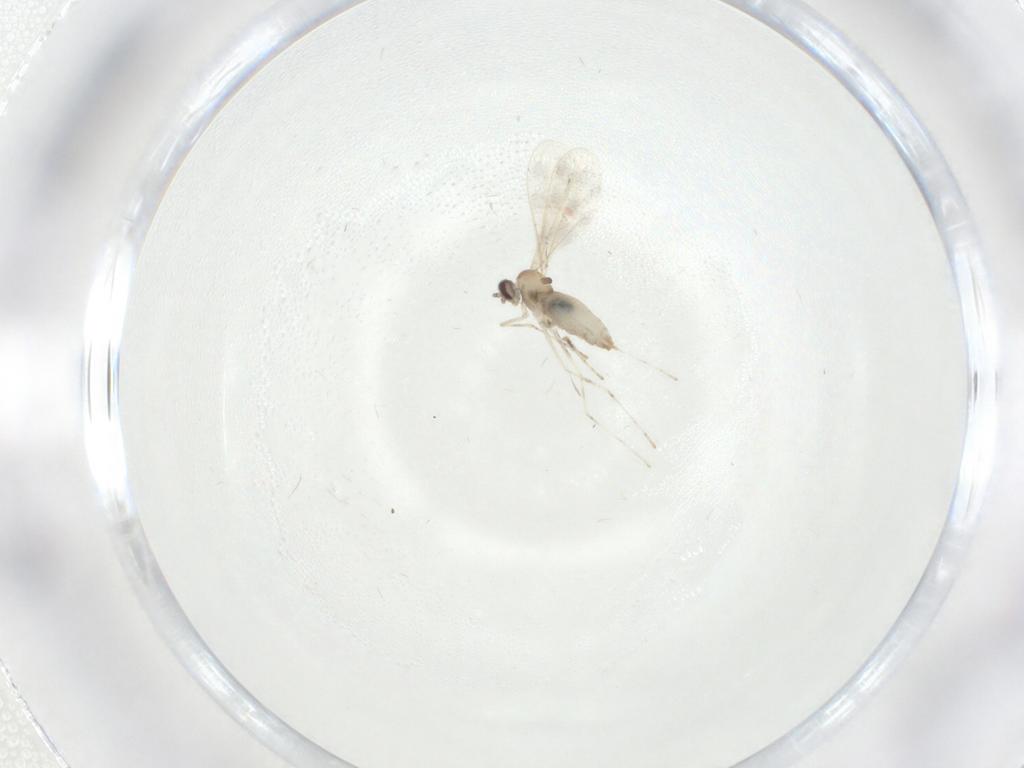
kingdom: Animalia
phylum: Arthropoda
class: Insecta
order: Diptera
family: Cecidomyiidae
